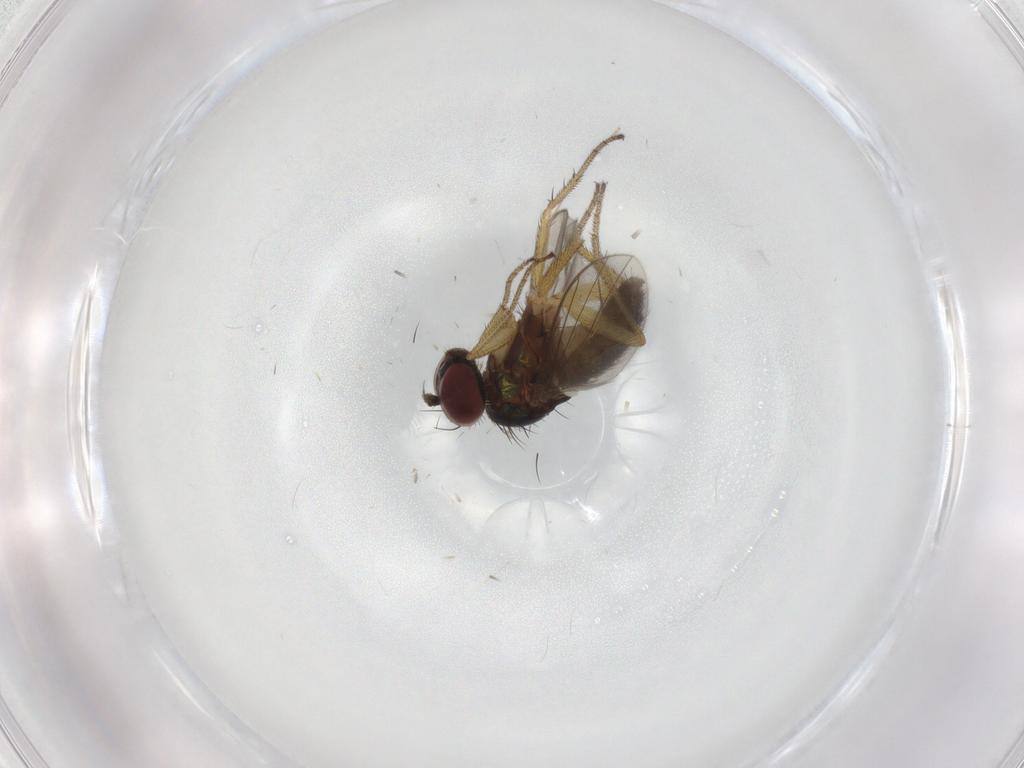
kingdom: Animalia
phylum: Arthropoda
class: Insecta
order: Diptera
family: Chironomidae
